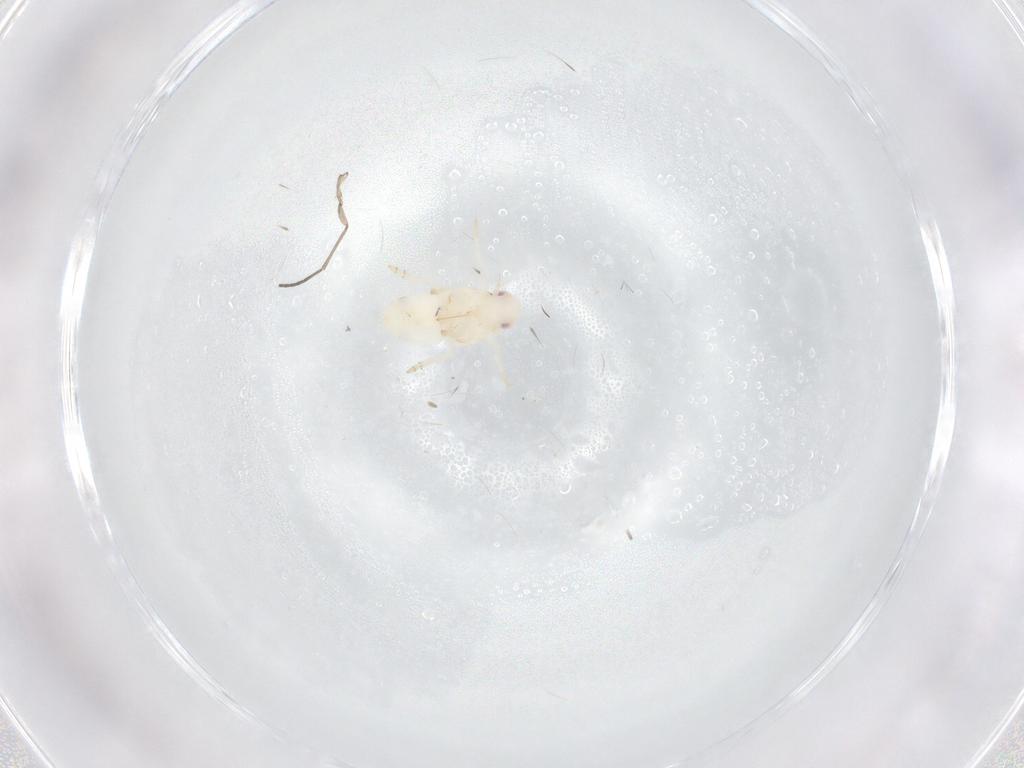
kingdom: Animalia
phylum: Arthropoda
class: Insecta
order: Hemiptera
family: Flatidae
